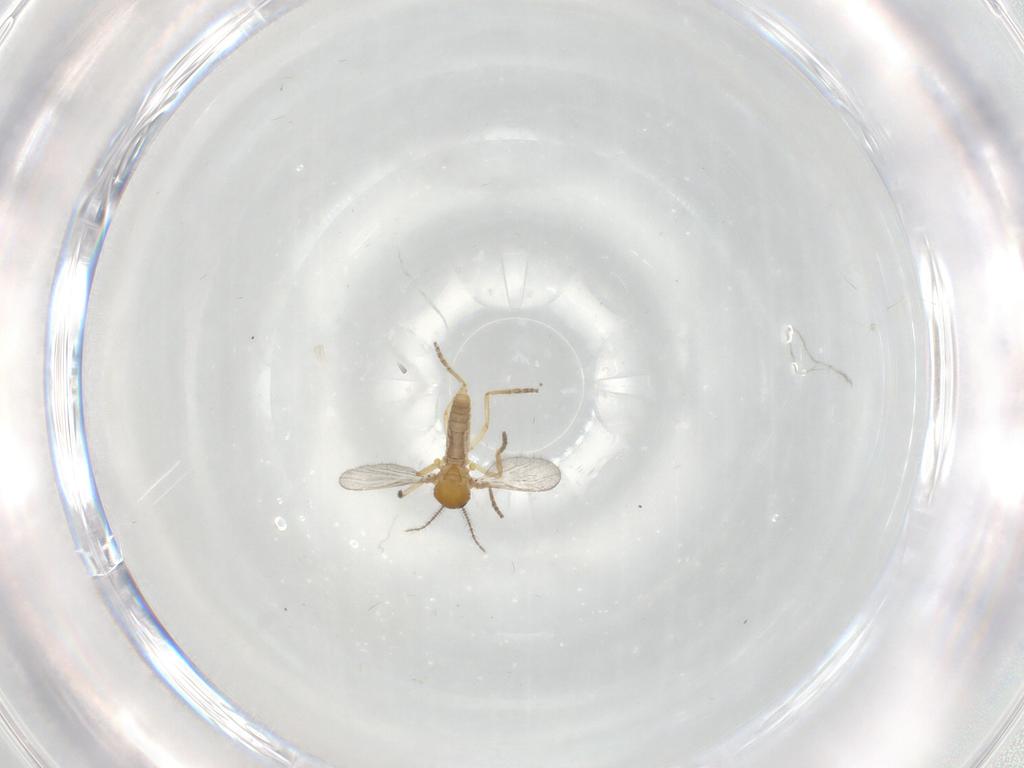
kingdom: Animalia
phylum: Arthropoda
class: Insecta
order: Diptera
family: Ceratopogonidae
